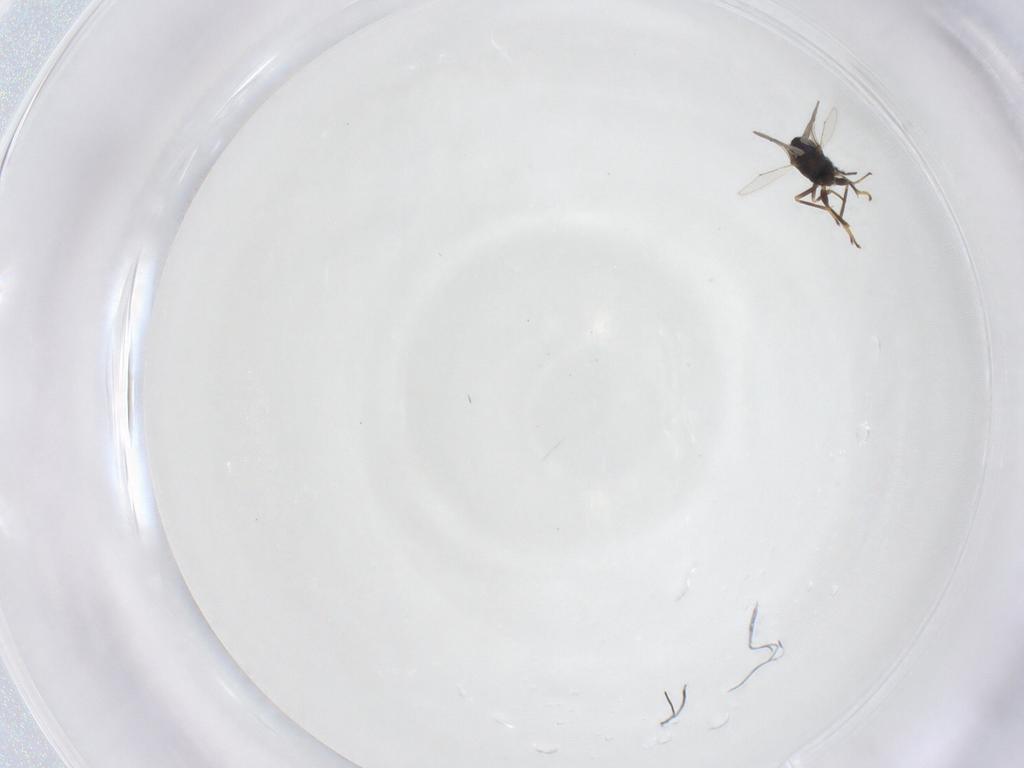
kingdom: Animalia
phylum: Arthropoda
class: Insecta
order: Hymenoptera
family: Encyrtidae
